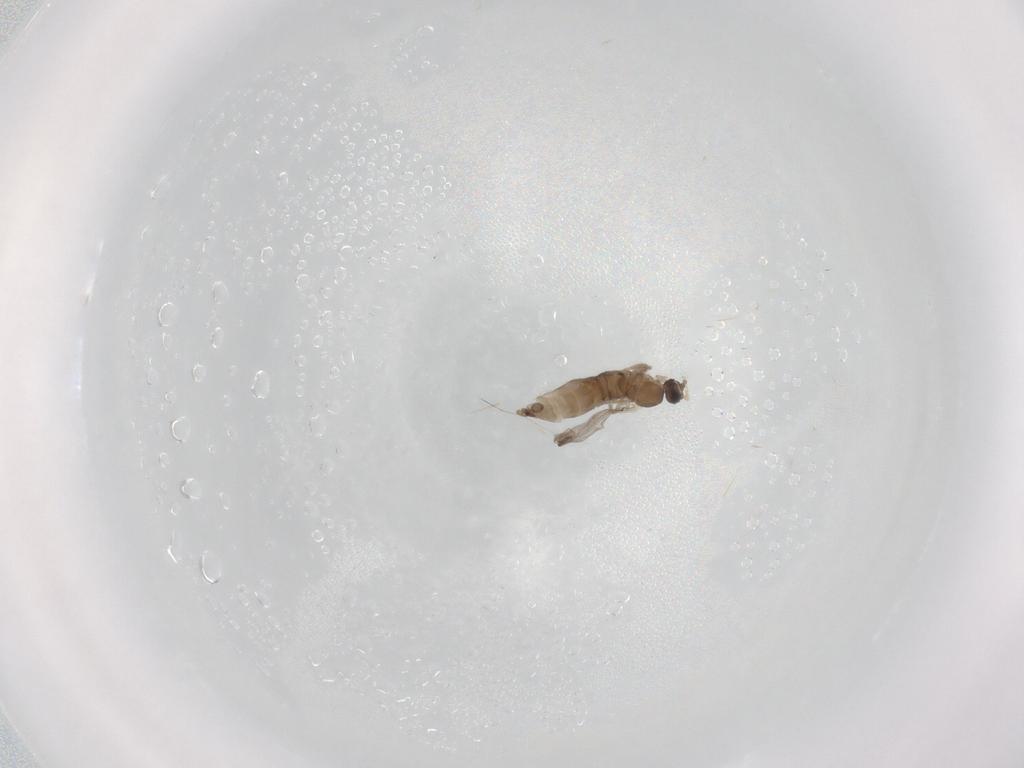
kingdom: Animalia
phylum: Arthropoda
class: Insecta
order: Diptera
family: Cecidomyiidae
